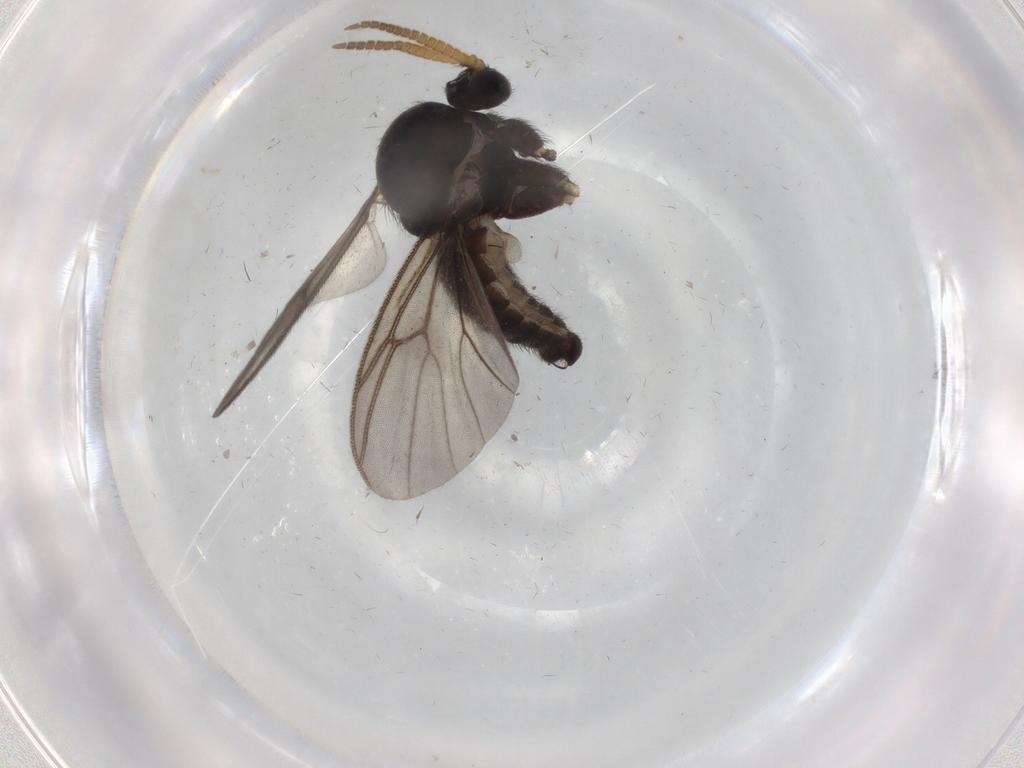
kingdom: Animalia
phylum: Arthropoda
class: Insecta
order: Diptera
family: Mycetophilidae
